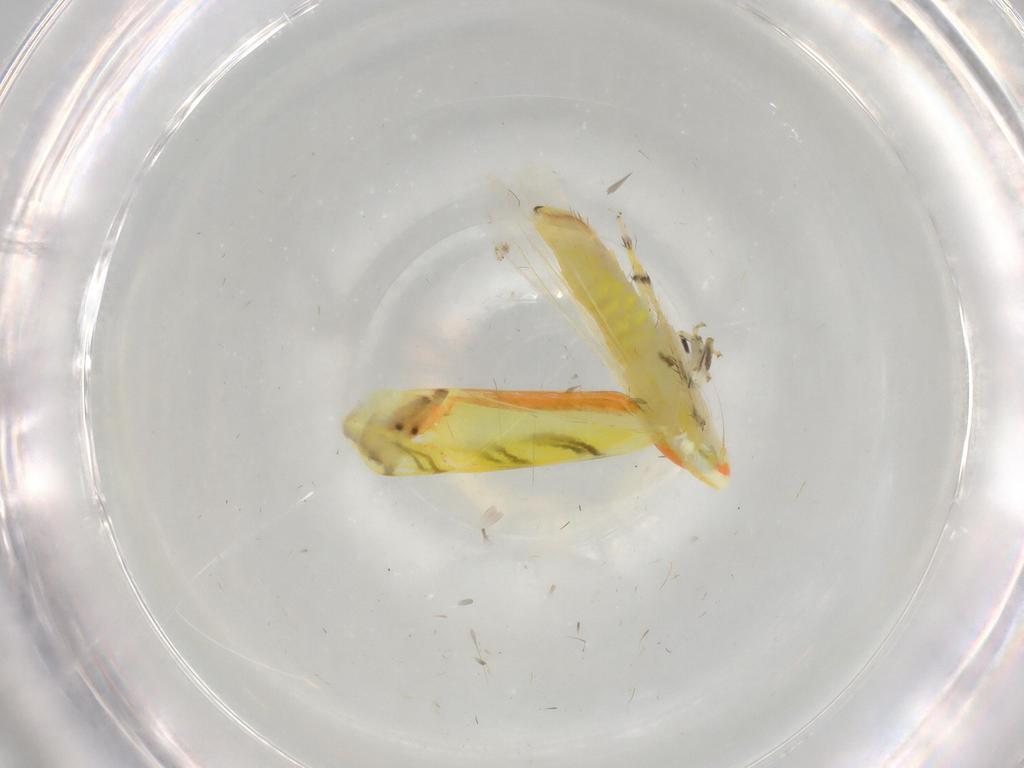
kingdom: Animalia
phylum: Arthropoda
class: Insecta
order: Hemiptera
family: Cicadellidae
